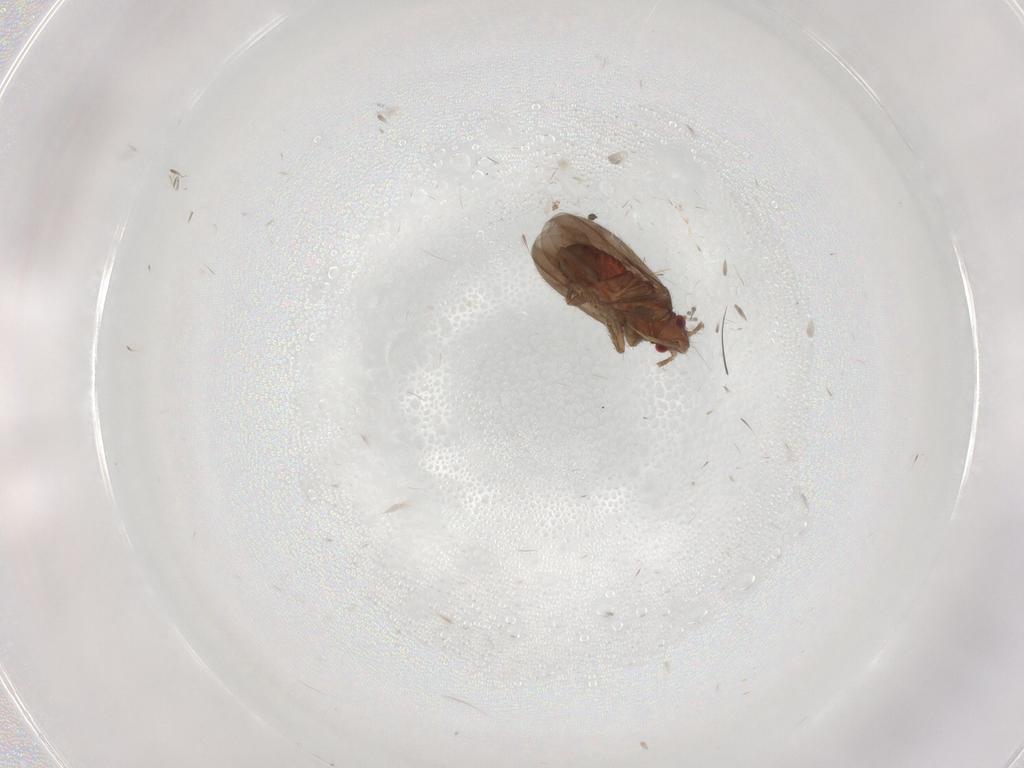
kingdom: Animalia
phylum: Arthropoda
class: Insecta
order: Hemiptera
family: Ceratocombidae
